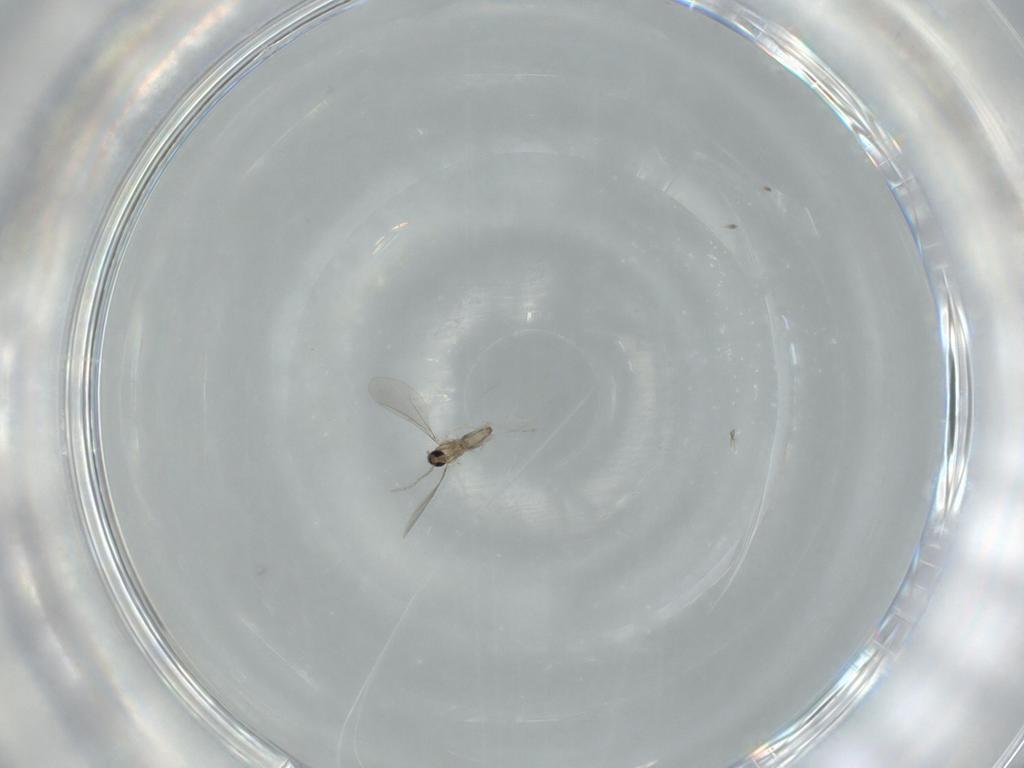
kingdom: Animalia
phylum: Arthropoda
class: Insecta
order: Diptera
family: Cecidomyiidae
